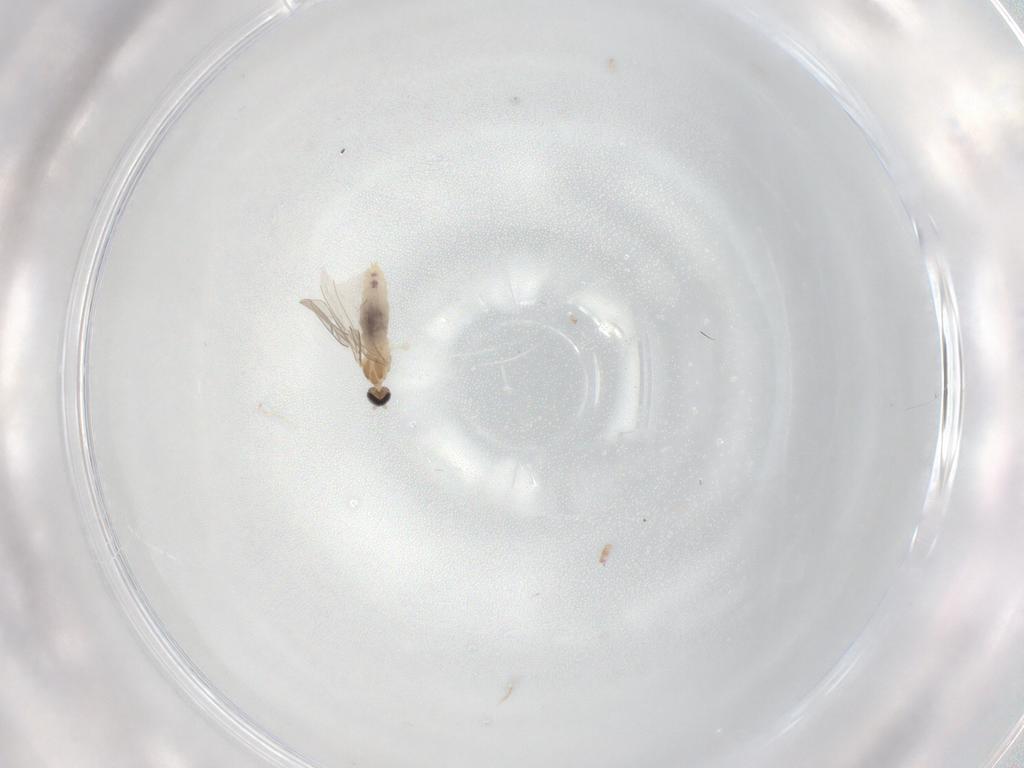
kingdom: Animalia
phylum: Arthropoda
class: Insecta
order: Diptera
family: Cecidomyiidae
